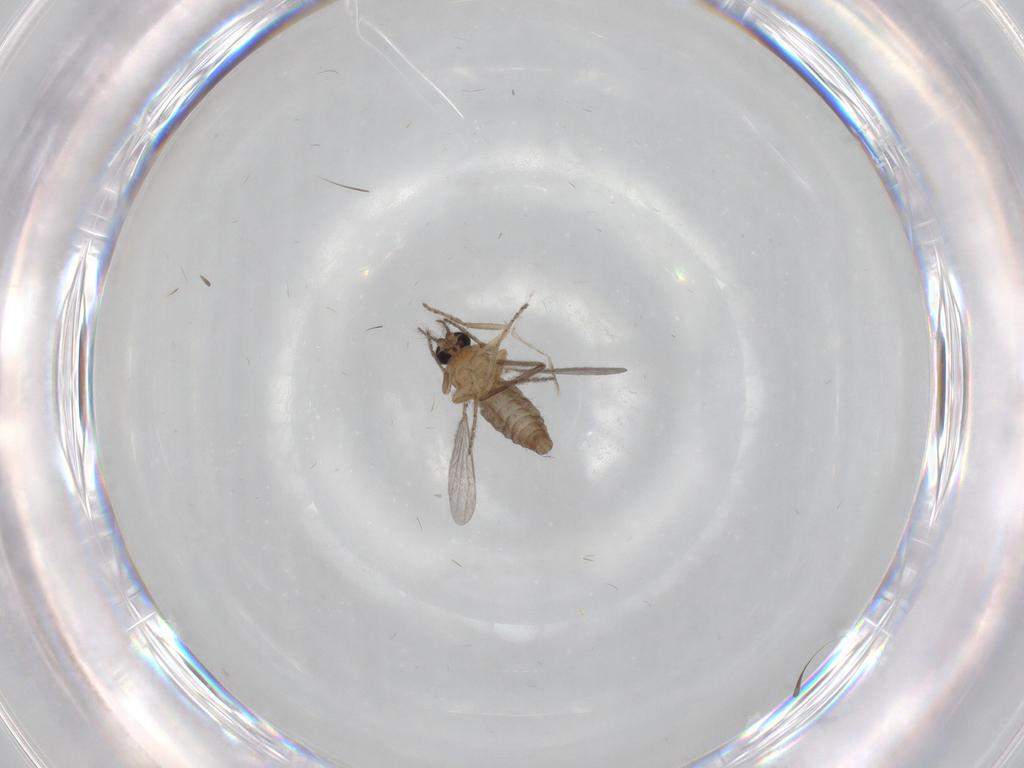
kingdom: Animalia
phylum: Arthropoda
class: Insecta
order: Diptera
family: Ceratopogonidae
